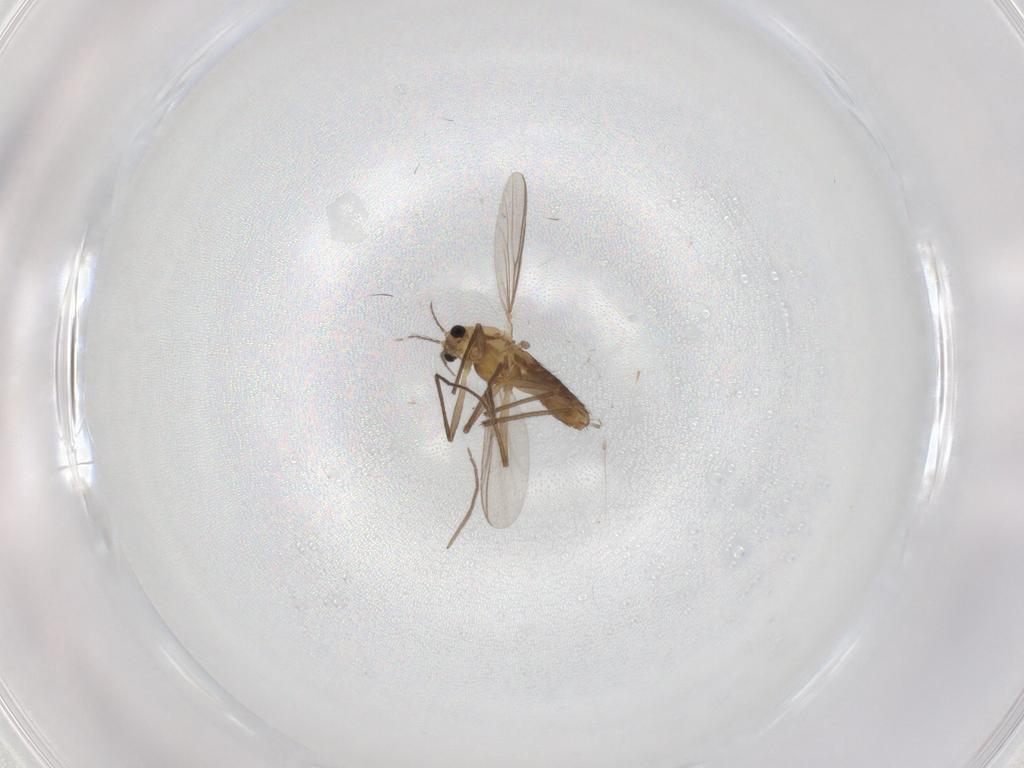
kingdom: Animalia
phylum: Arthropoda
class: Insecta
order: Diptera
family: Chironomidae
